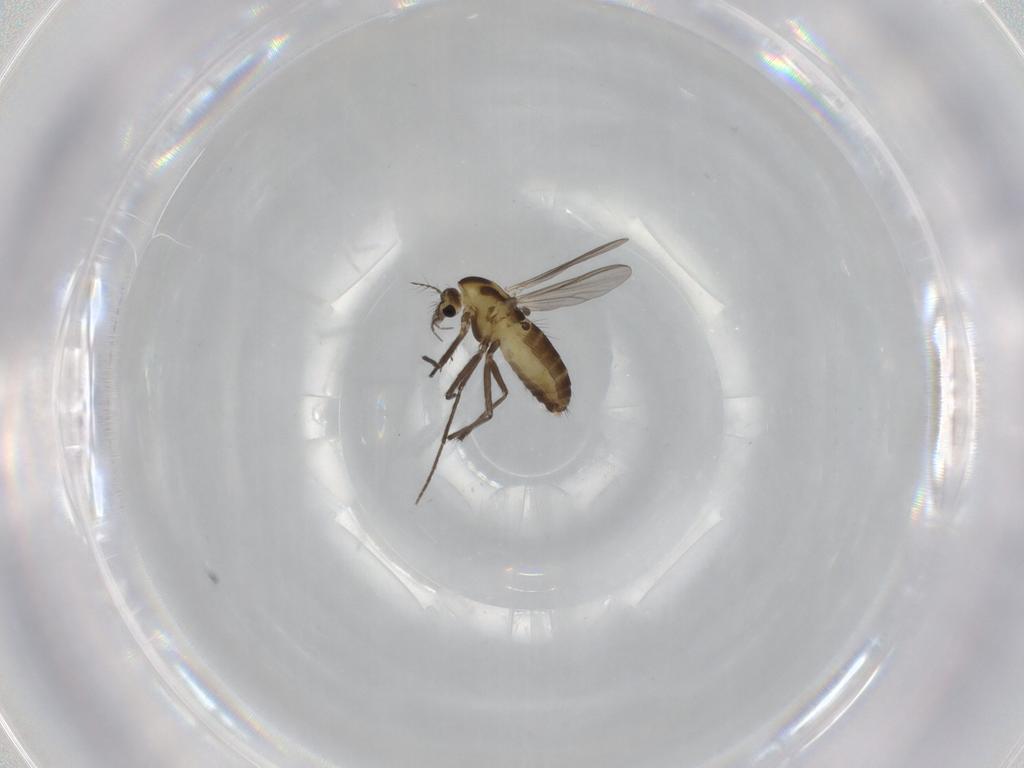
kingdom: Animalia
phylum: Arthropoda
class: Insecta
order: Diptera
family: Chironomidae
